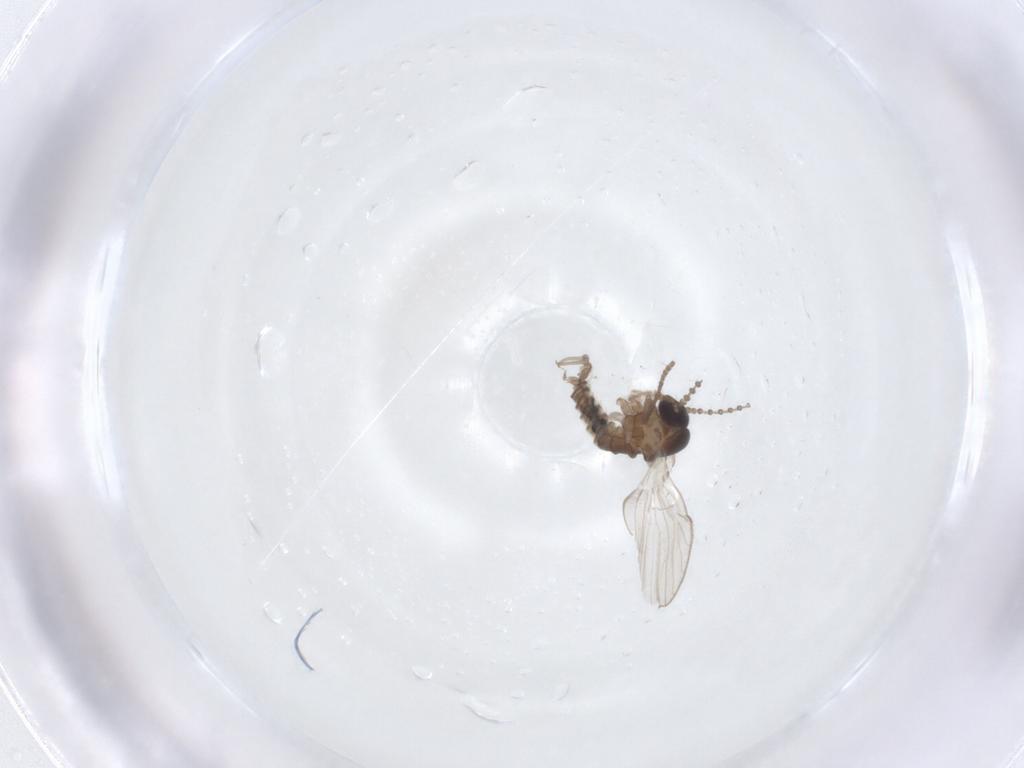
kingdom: Animalia
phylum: Arthropoda
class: Insecta
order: Diptera
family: Psychodidae
